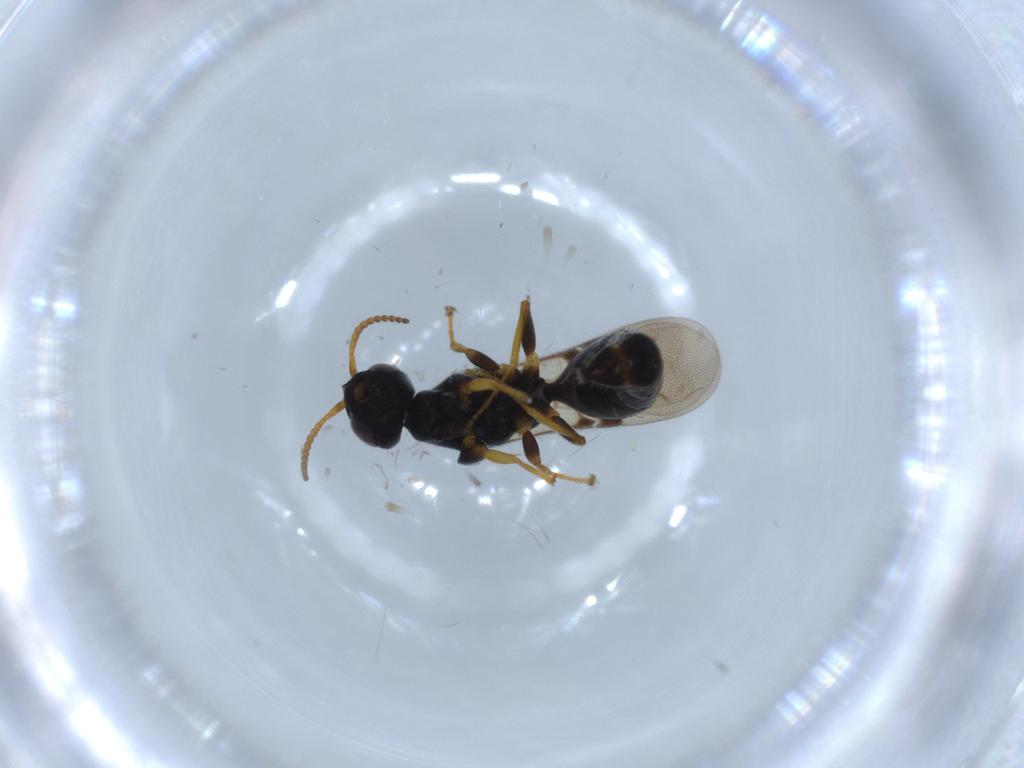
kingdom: Animalia
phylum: Arthropoda
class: Insecta
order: Hymenoptera
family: Bethylidae
